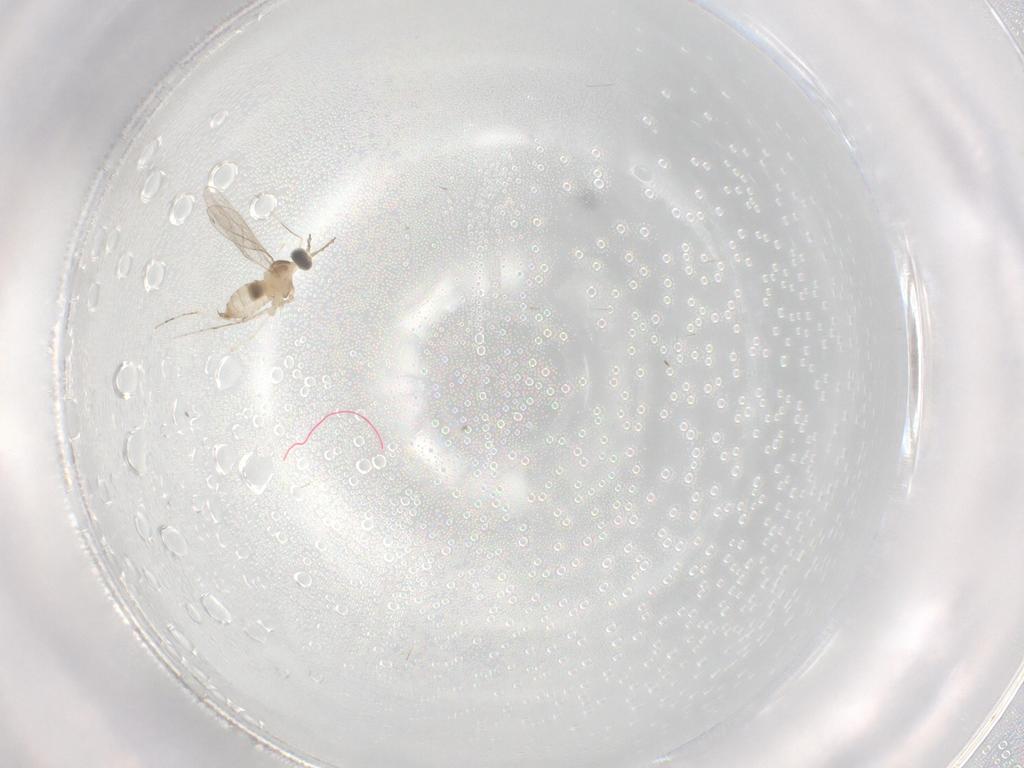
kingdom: Animalia
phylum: Arthropoda
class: Insecta
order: Diptera
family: Cecidomyiidae
